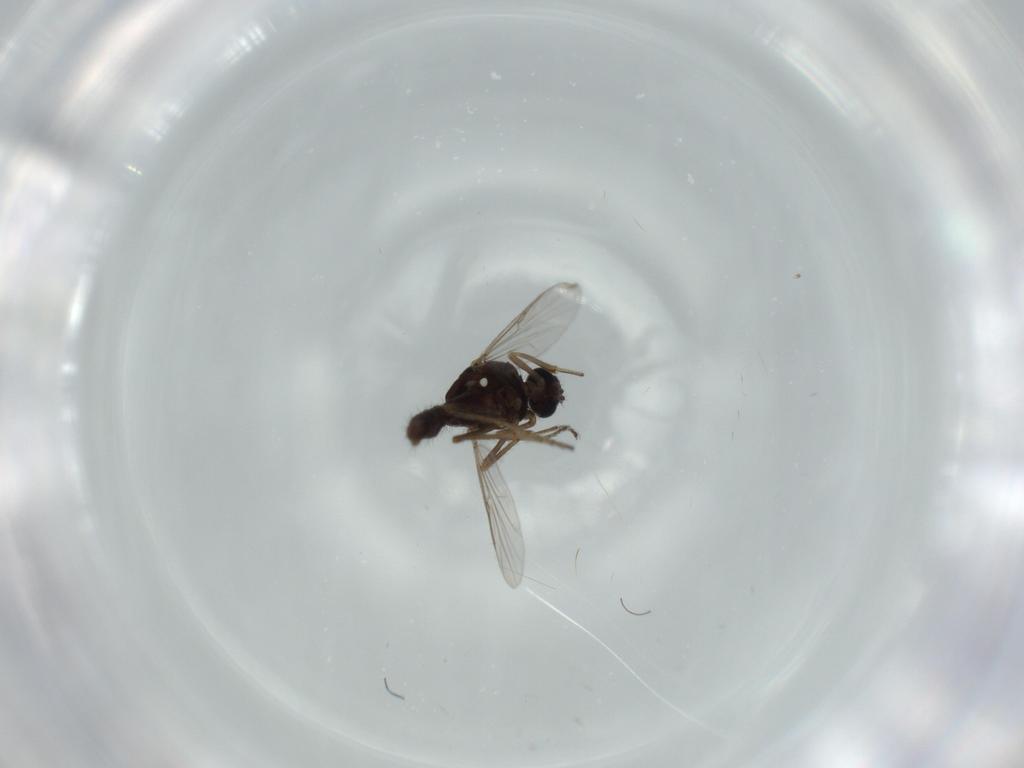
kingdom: Animalia
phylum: Arthropoda
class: Insecta
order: Diptera
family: Ceratopogonidae
